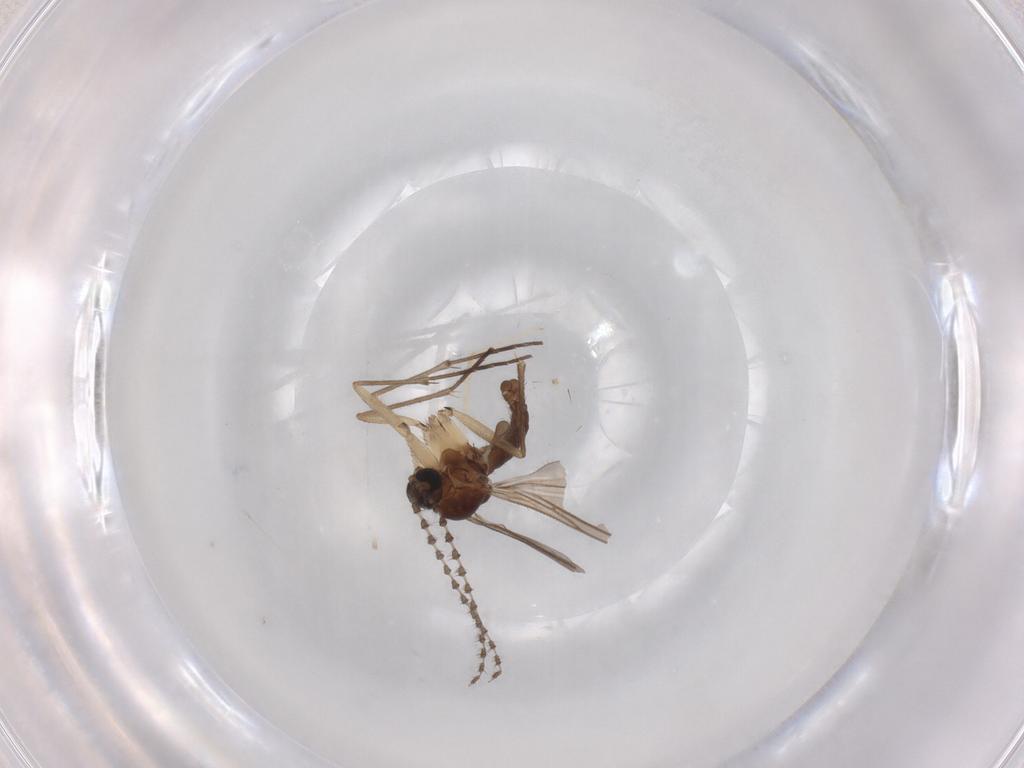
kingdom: Animalia
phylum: Arthropoda
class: Insecta
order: Diptera
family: Sciaridae
